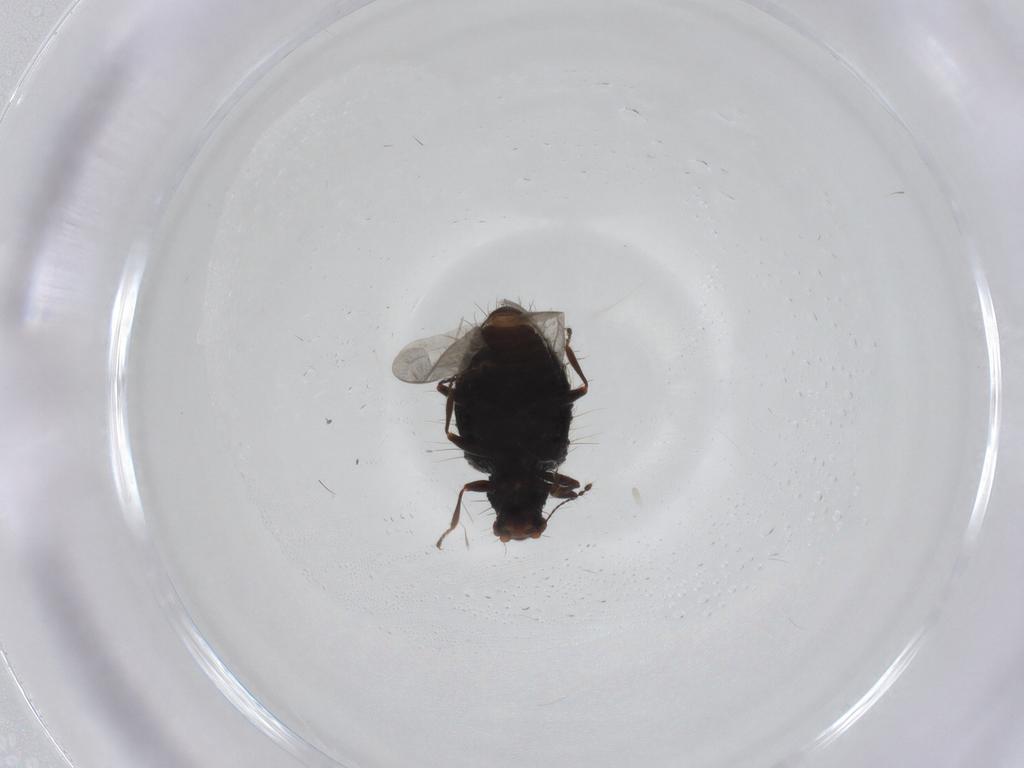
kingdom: Animalia
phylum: Arthropoda
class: Insecta
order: Coleoptera
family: Latridiidae
